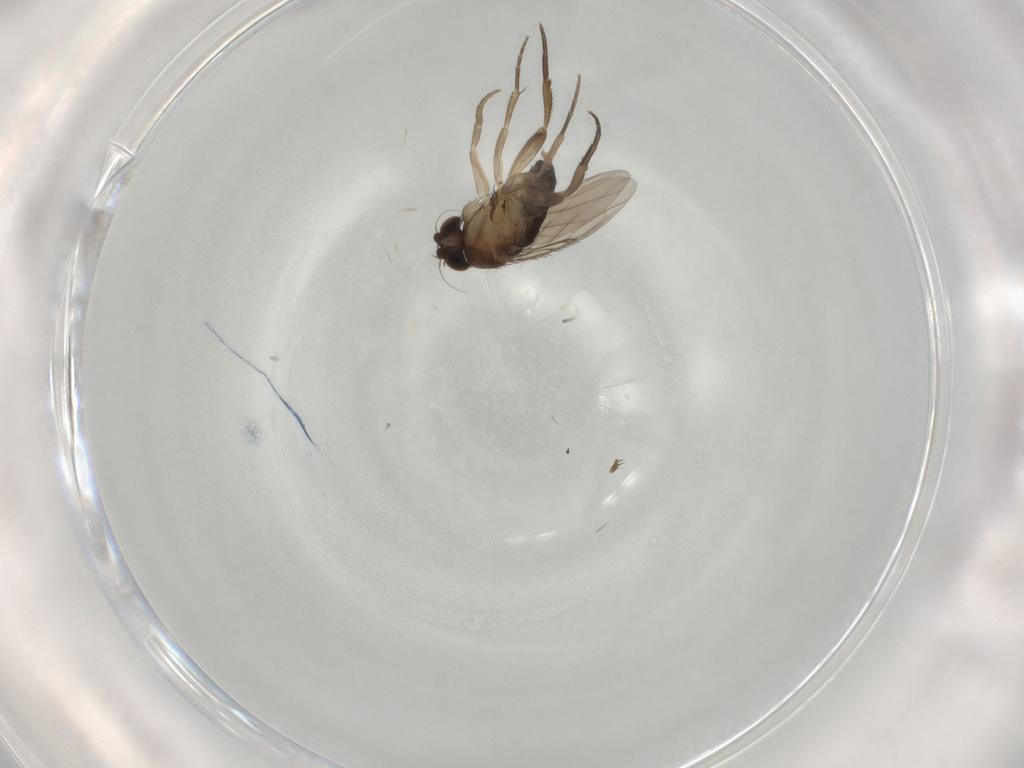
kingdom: Animalia
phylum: Arthropoda
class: Insecta
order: Diptera
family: Phoridae
